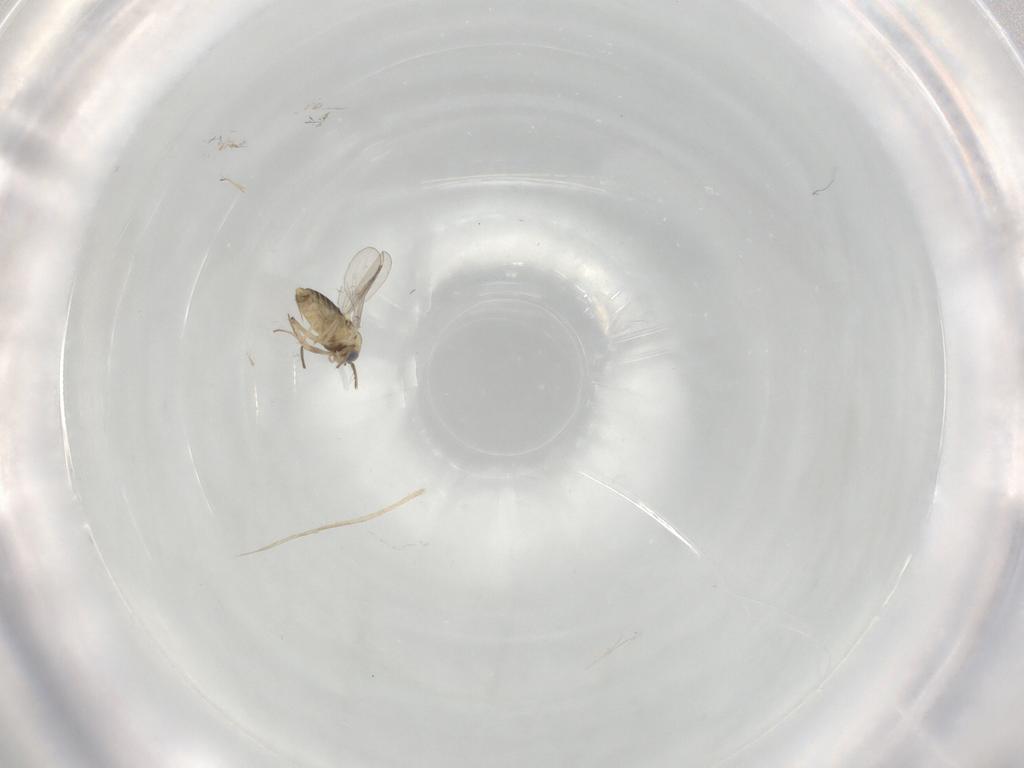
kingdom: Animalia
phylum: Arthropoda
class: Insecta
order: Diptera
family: Chironomidae
